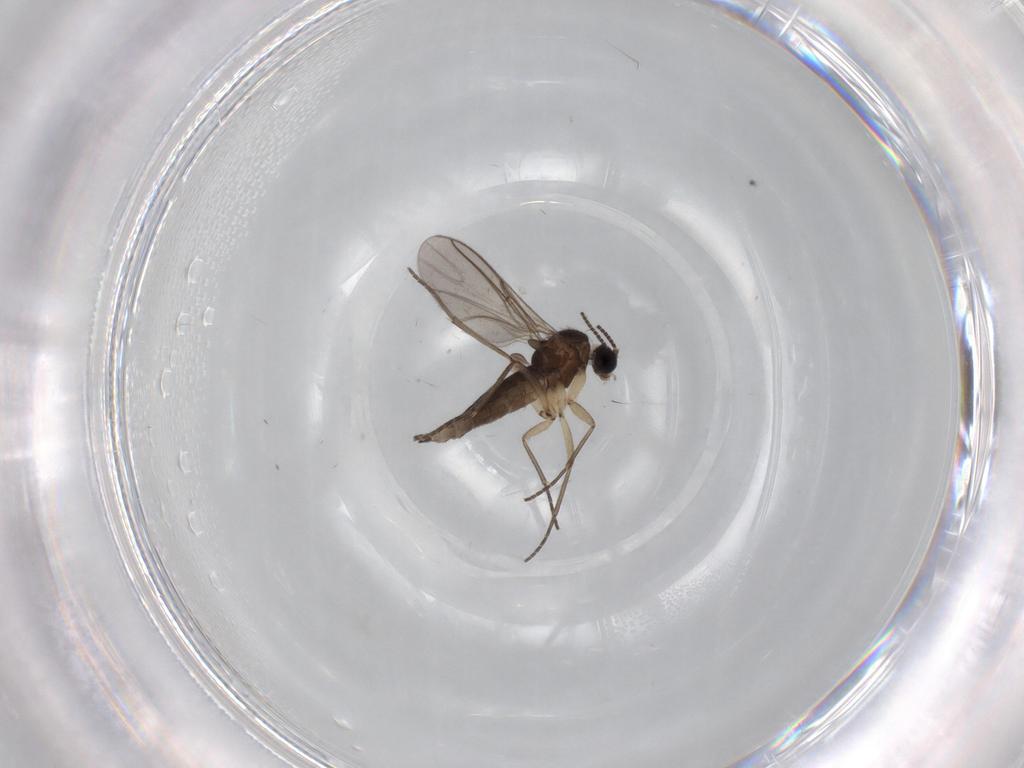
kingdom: Animalia
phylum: Arthropoda
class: Insecta
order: Diptera
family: Sciaridae
